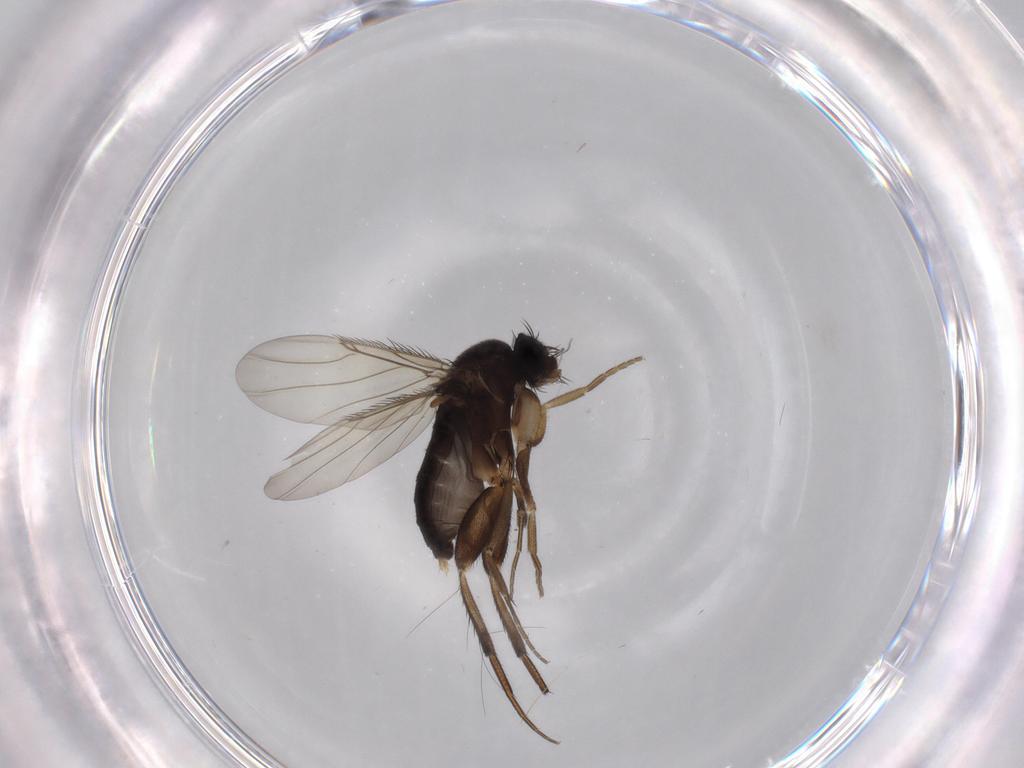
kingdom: Animalia
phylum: Arthropoda
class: Insecta
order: Diptera
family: Phoridae
